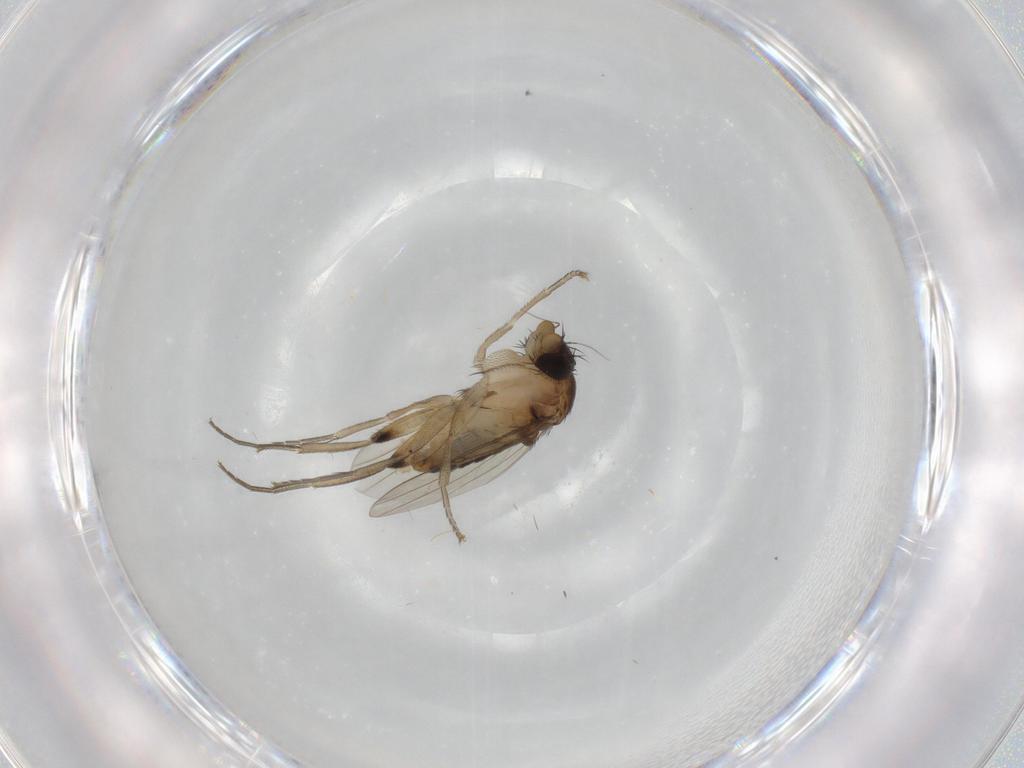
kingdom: Animalia
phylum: Arthropoda
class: Insecta
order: Diptera
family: Phoridae
